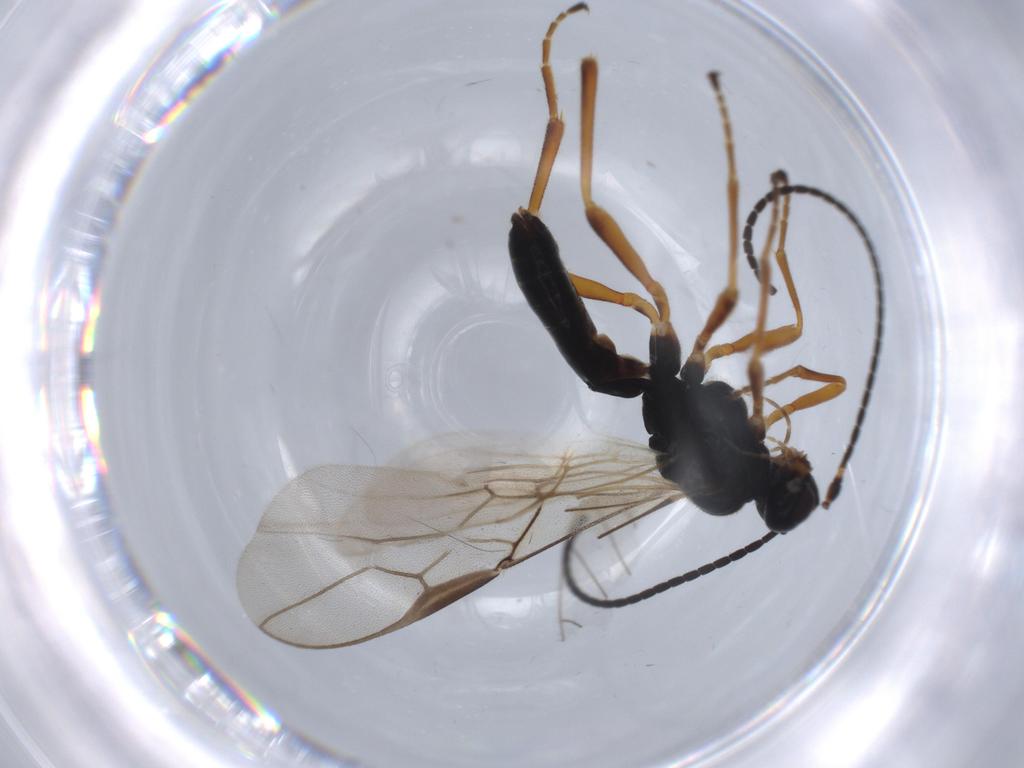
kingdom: Animalia
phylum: Arthropoda
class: Insecta
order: Hymenoptera
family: Braconidae
